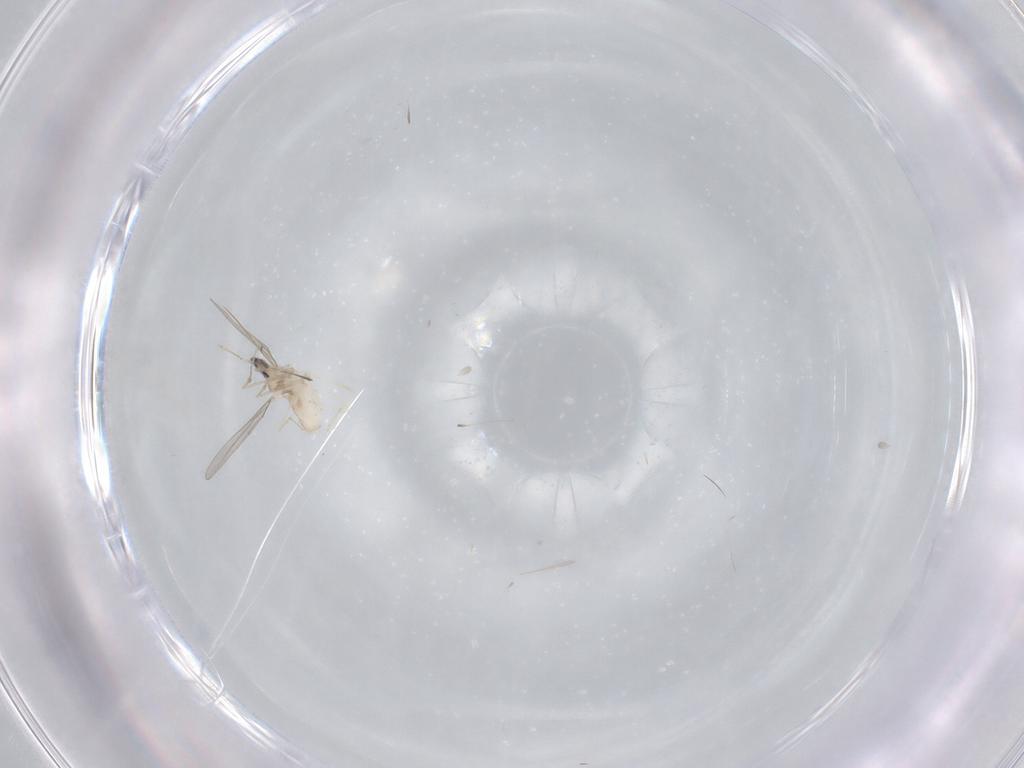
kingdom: Animalia
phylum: Arthropoda
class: Insecta
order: Diptera
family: Cecidomyiidae
